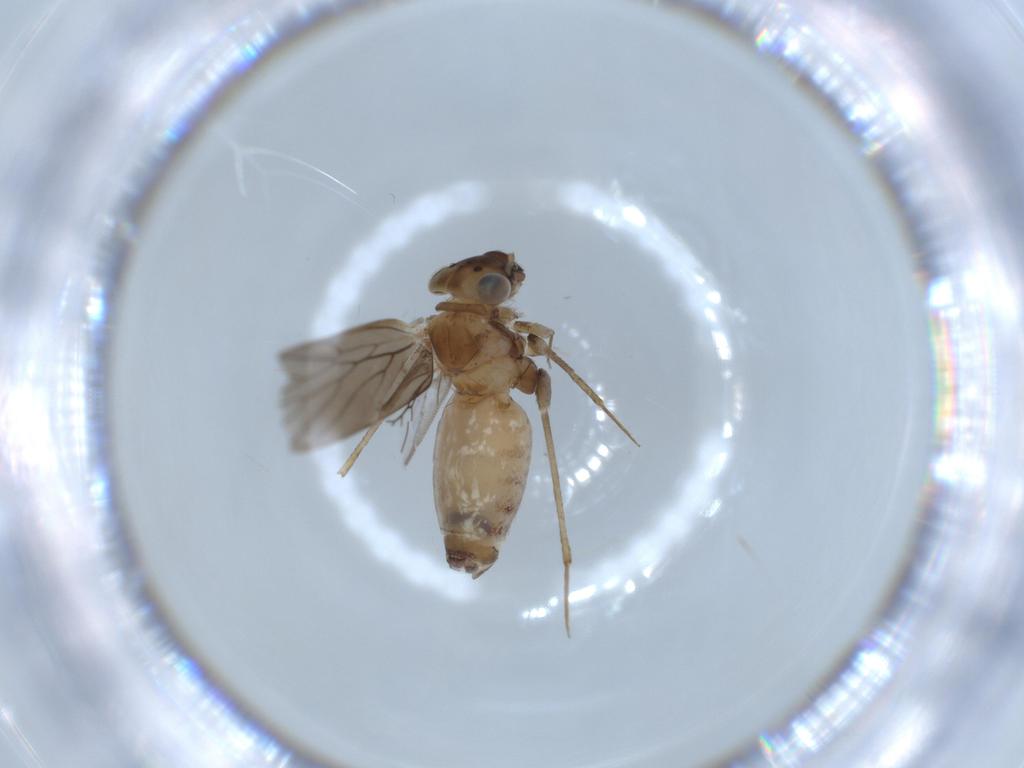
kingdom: Animalia
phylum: Arthropoda
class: Insecta
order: Psocodea
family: Lepidopsocidae
